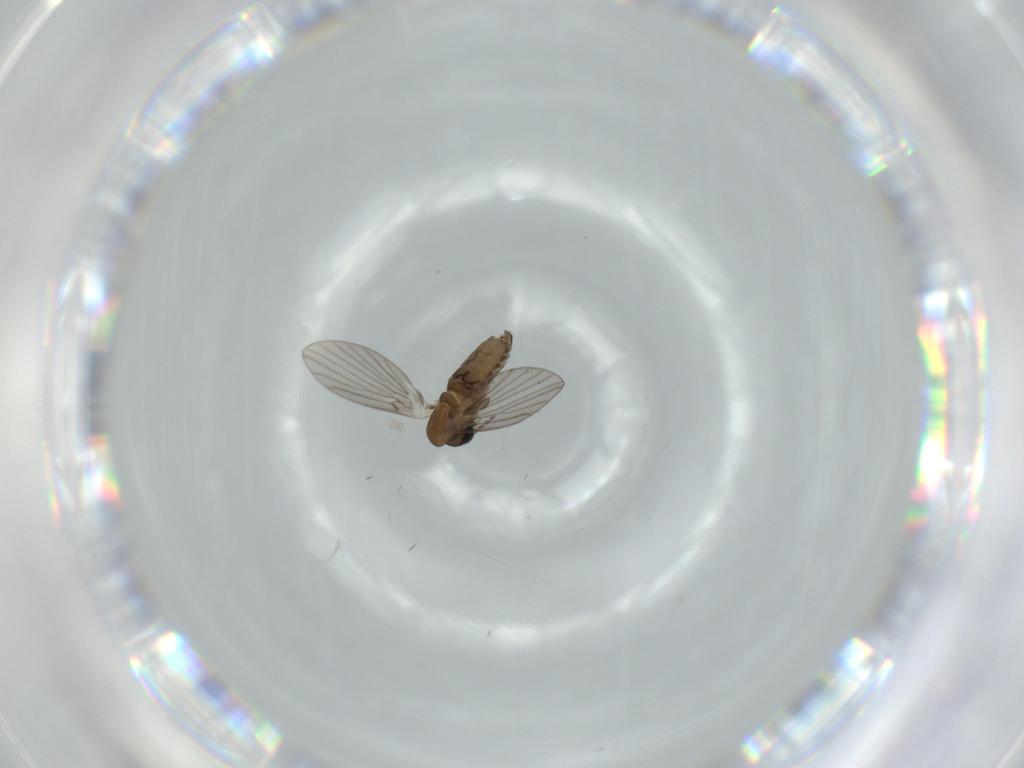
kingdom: Animalia
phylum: Arthropoda
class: Insecta
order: Diptera
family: Psychodidae
